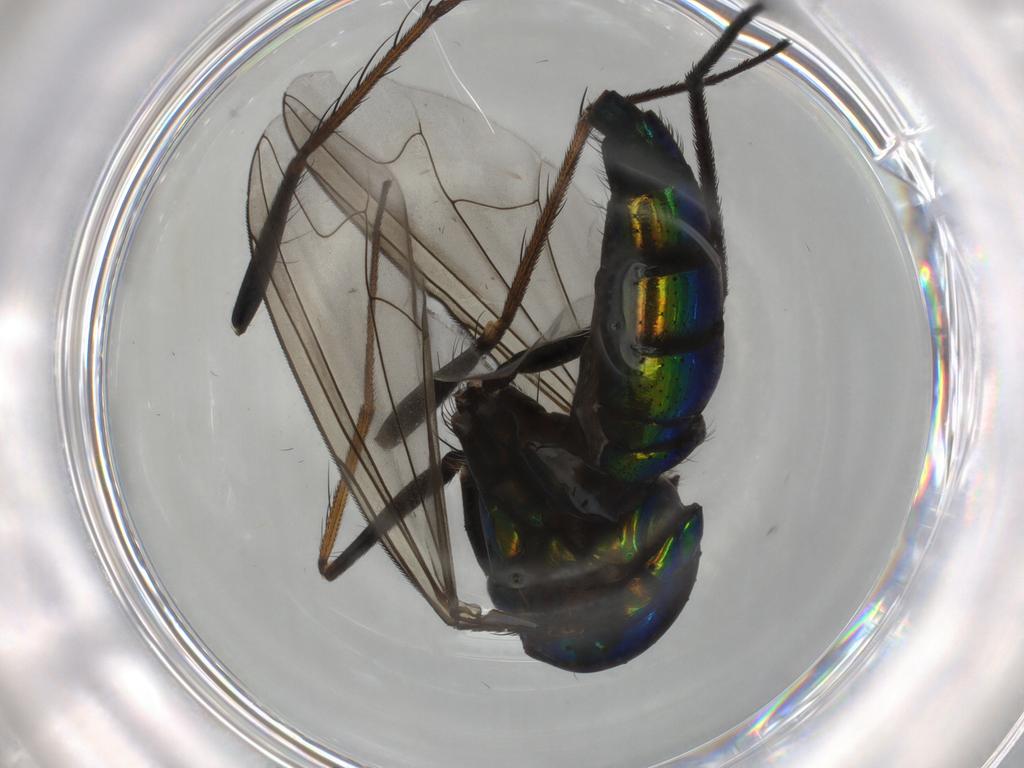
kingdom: Animalia
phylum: Arthropoda
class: Insecta
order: Diptera
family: Dolichopodidae
